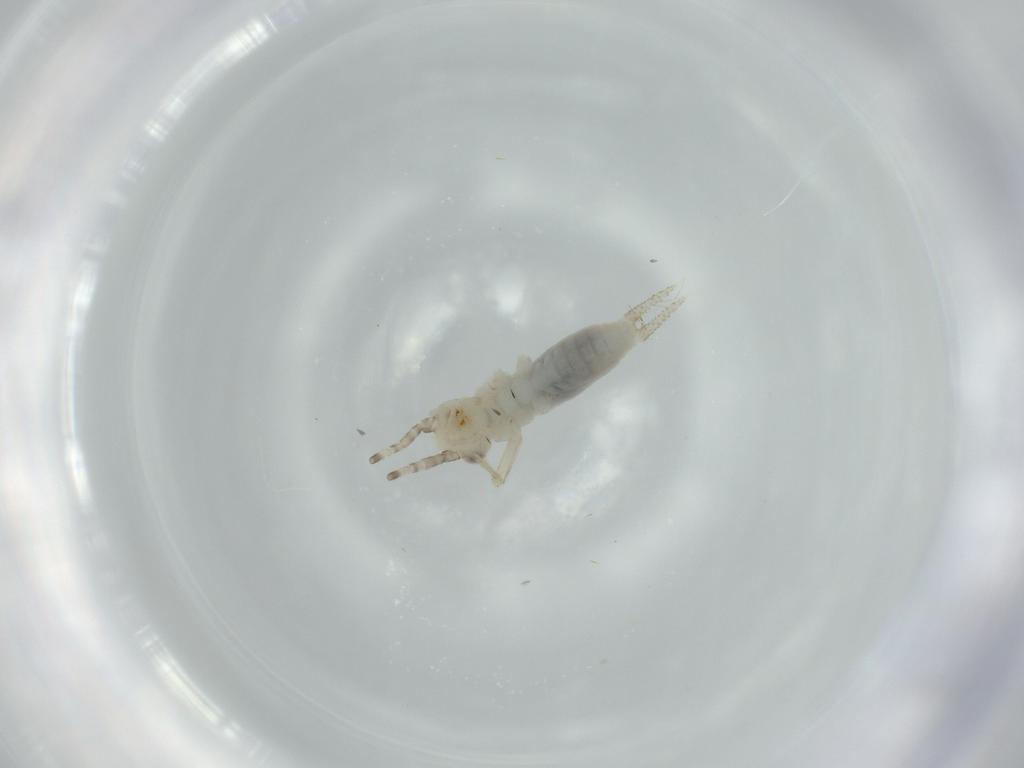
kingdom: Animalia
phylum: Arthropoda
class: Insecta
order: Orthoptera
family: Trigonidiidae
